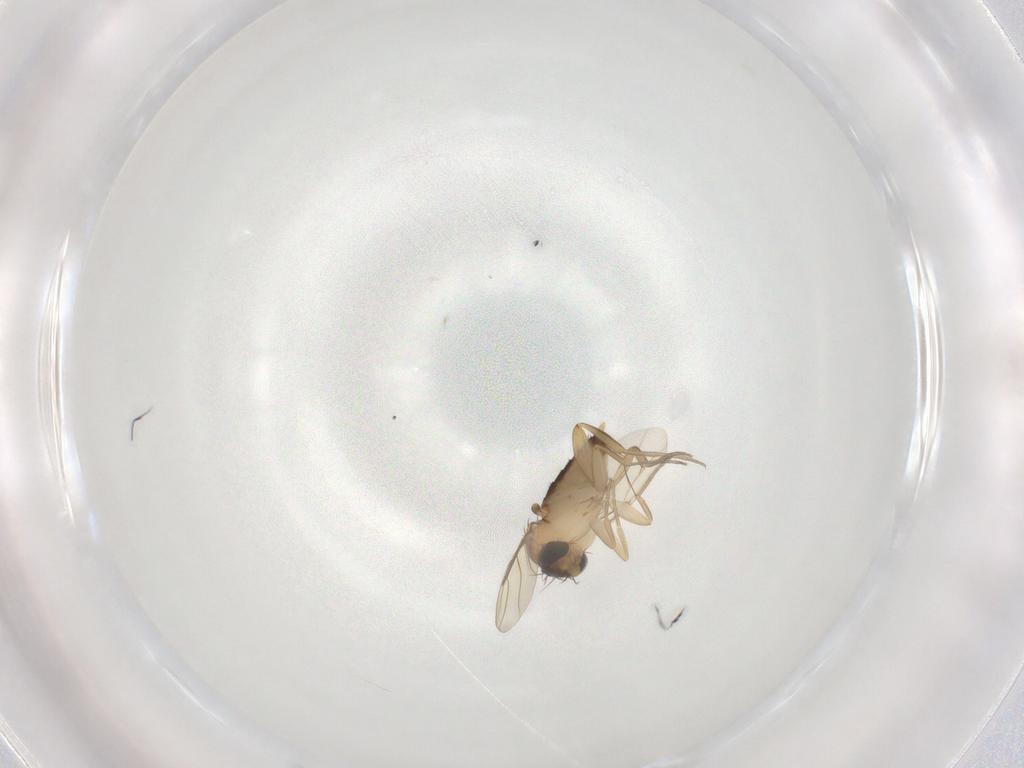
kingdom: Animalia
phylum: Arthropoda
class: Insecta
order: Diptera
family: Phoridae
